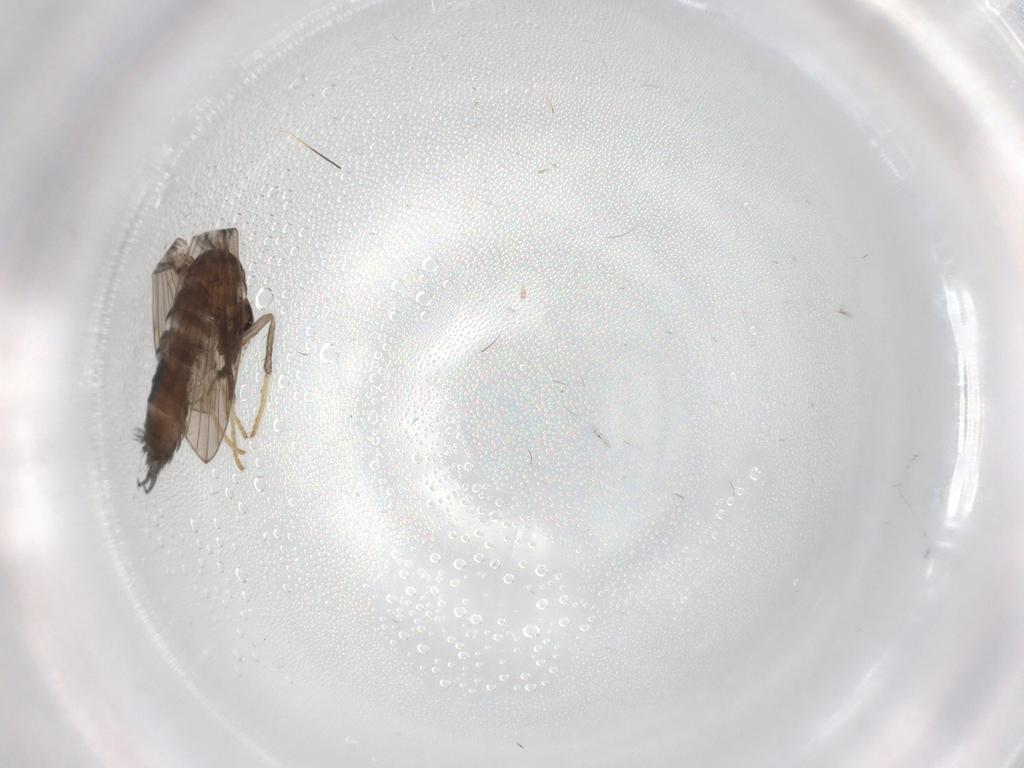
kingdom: Animalia
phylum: Arthropoda
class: Insecta
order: Diptera
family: Psychodidae
